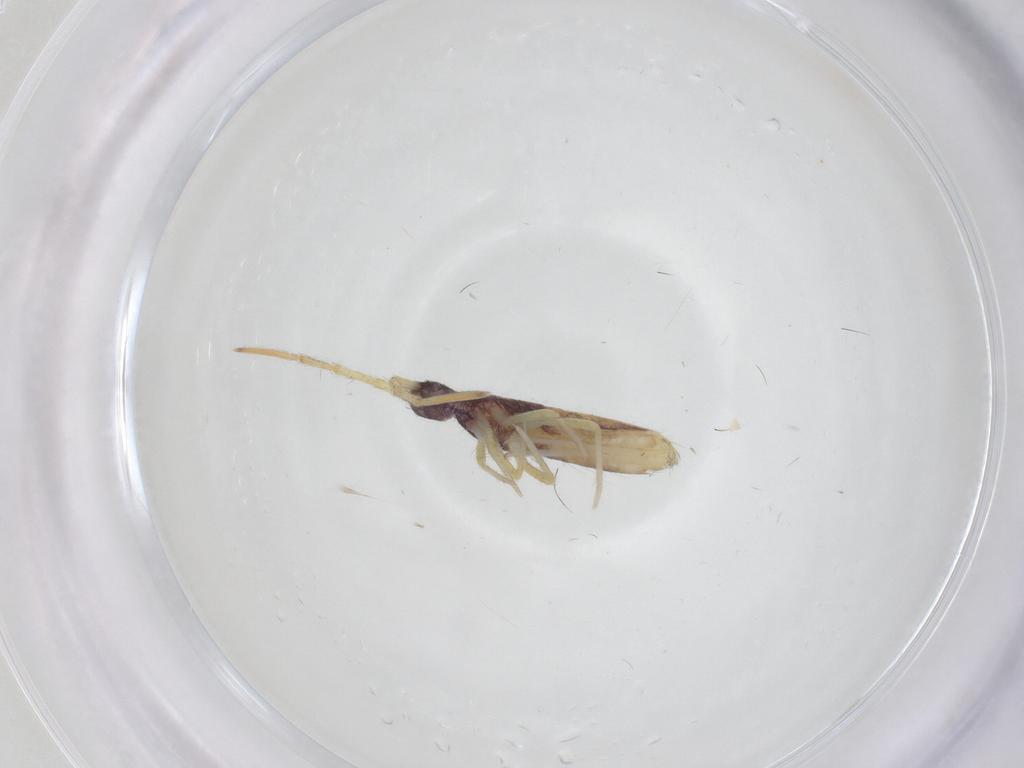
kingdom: Animalia
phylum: Arthropoda
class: Collembola
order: Entomobryomorpha
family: Entomobryidae
